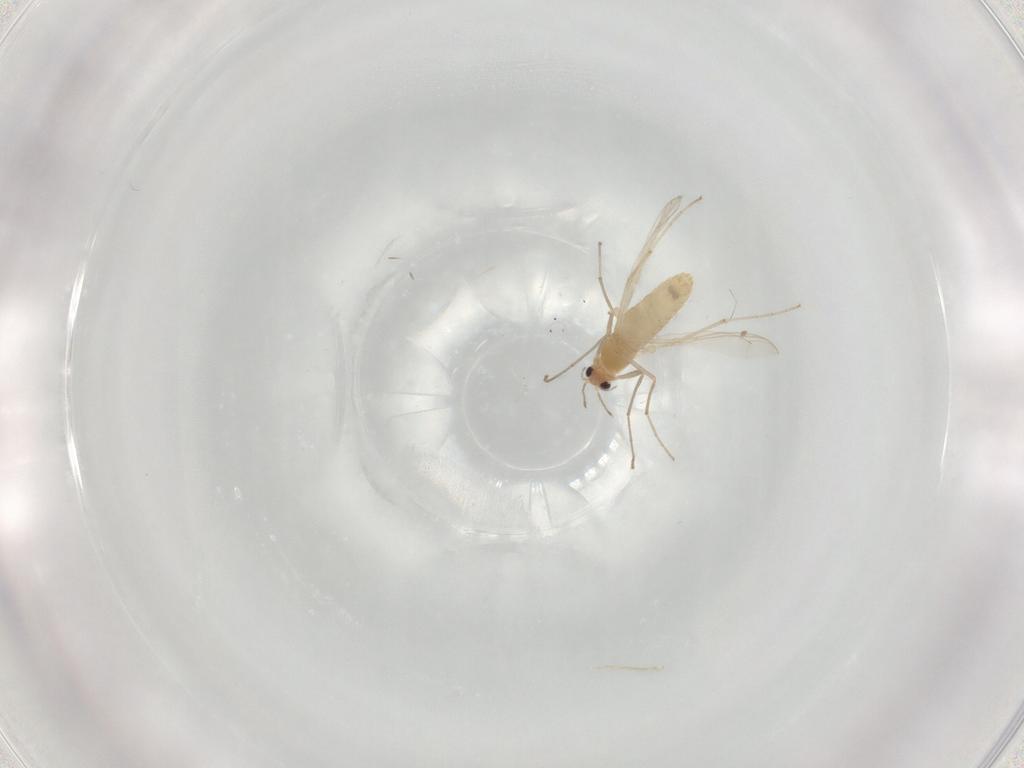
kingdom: Animalia
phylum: Arthropoda
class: Insecta
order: Diptera
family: Chironomidae
